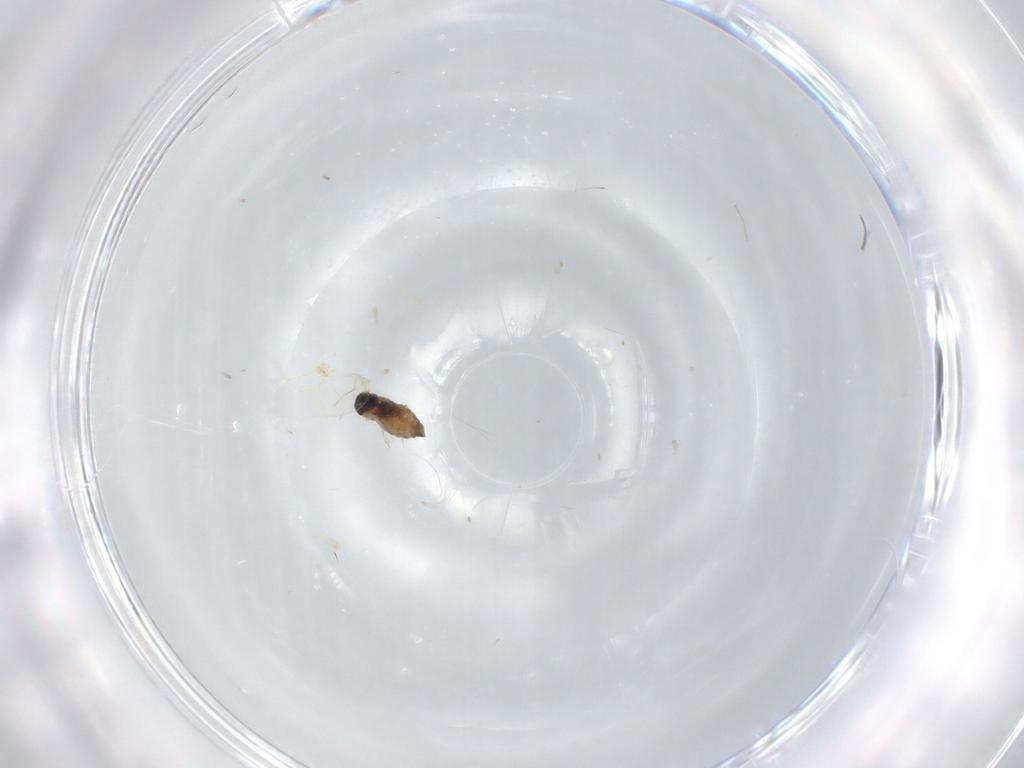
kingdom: Animalia
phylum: Arthropoda
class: Insecta
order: Diptera
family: Cecidomyiidae
